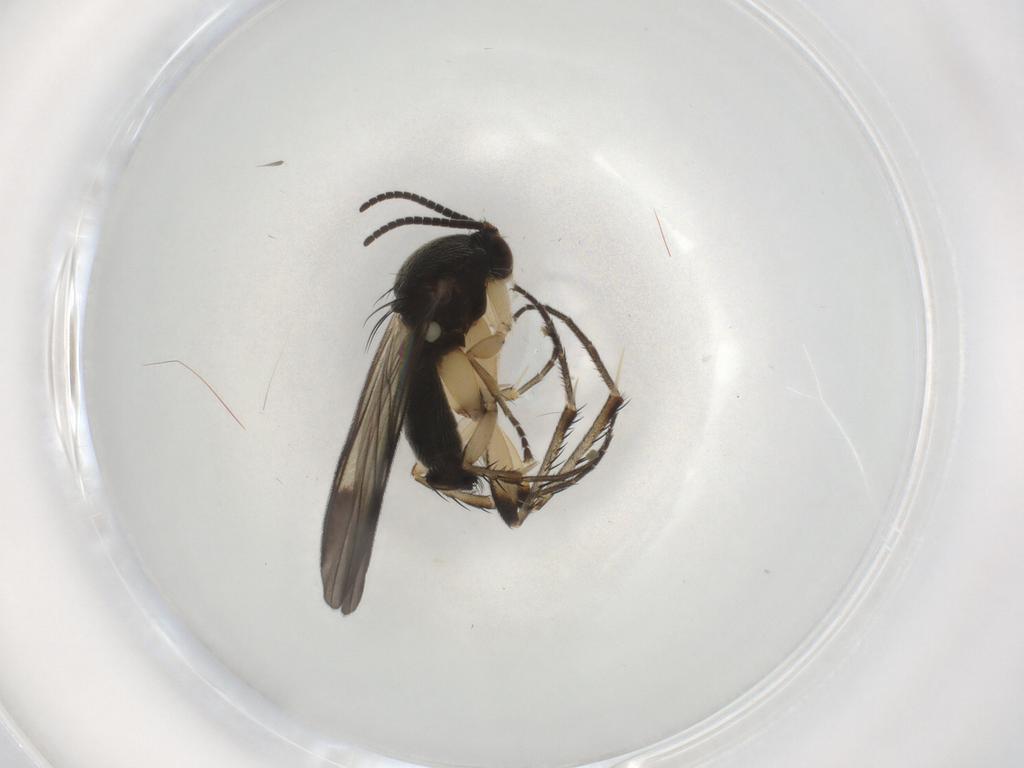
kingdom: Animalia
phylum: Arthropoda
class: Insecta
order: Diptera
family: Mycetophilidae
